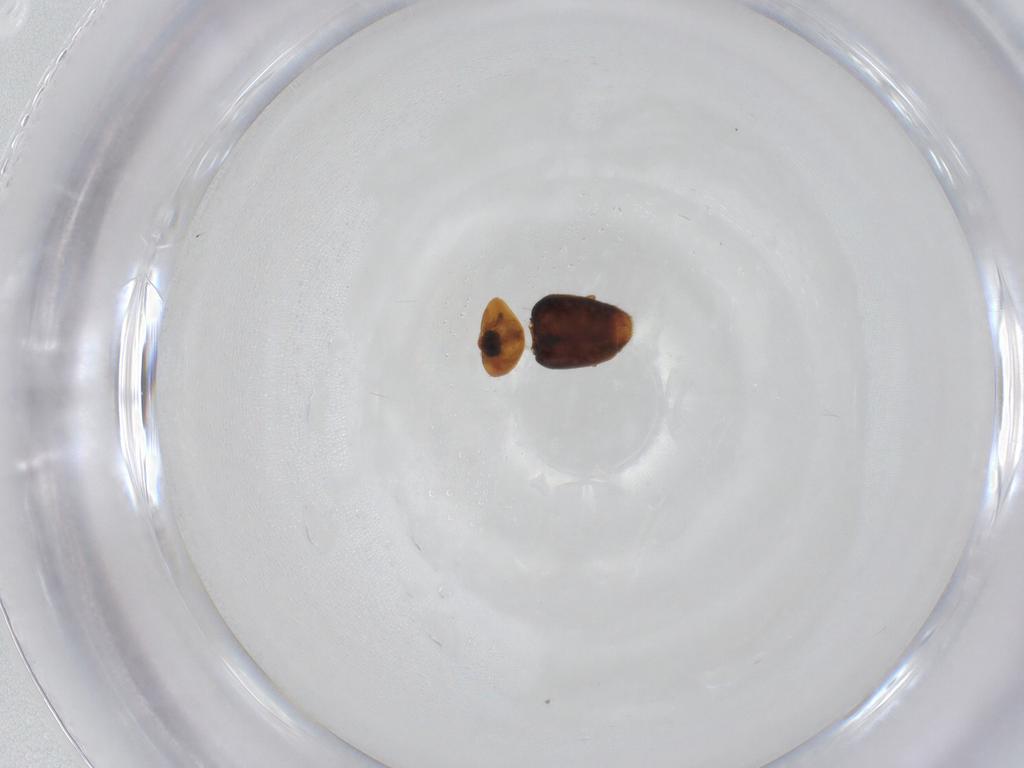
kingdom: Animalia
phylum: Arthropoda
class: Insecta
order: Coleoptera
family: Corylophidae
